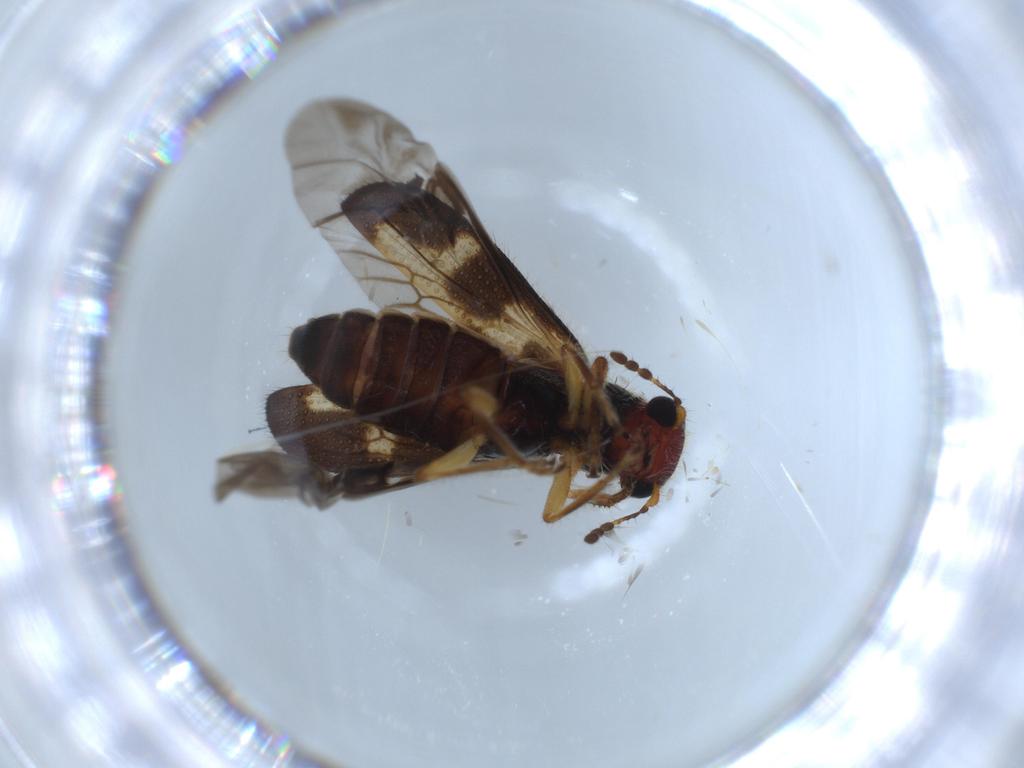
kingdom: Animalia
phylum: Arthropoda
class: Insecta
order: Coleoptera
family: Cleridae
